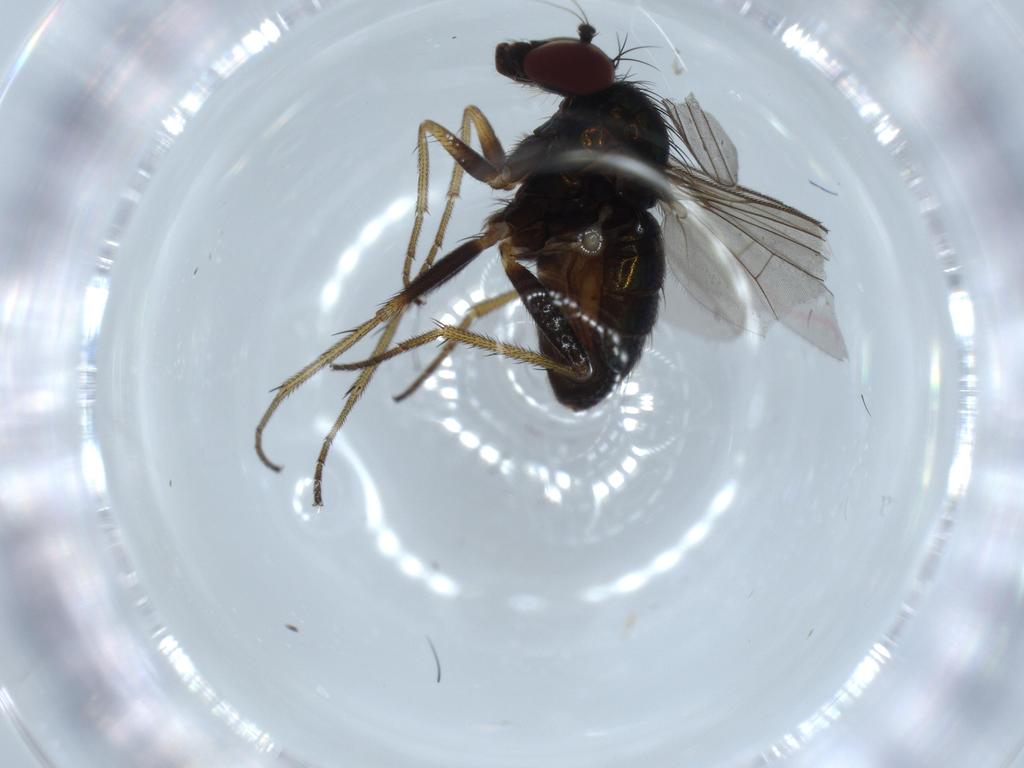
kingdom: Animalia
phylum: Arthropoda
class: Insecta
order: Diptera
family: Dolichopodidae
